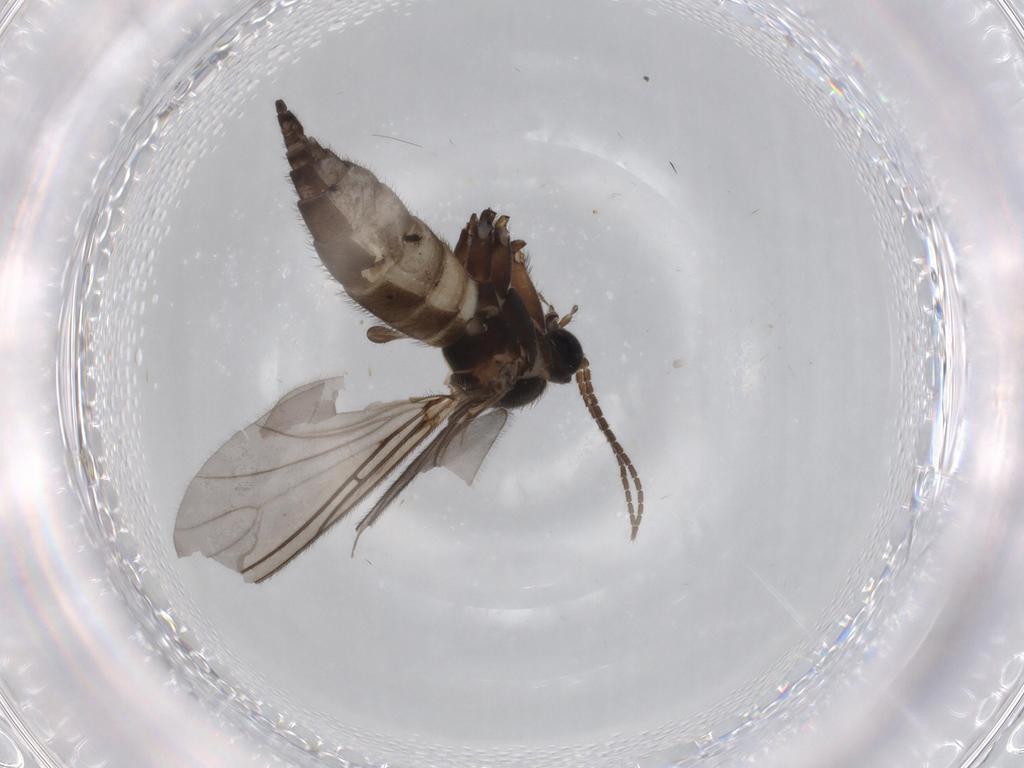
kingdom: Animalia
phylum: Arthropoda
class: Insecta
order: Diptera
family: Sciaridae
